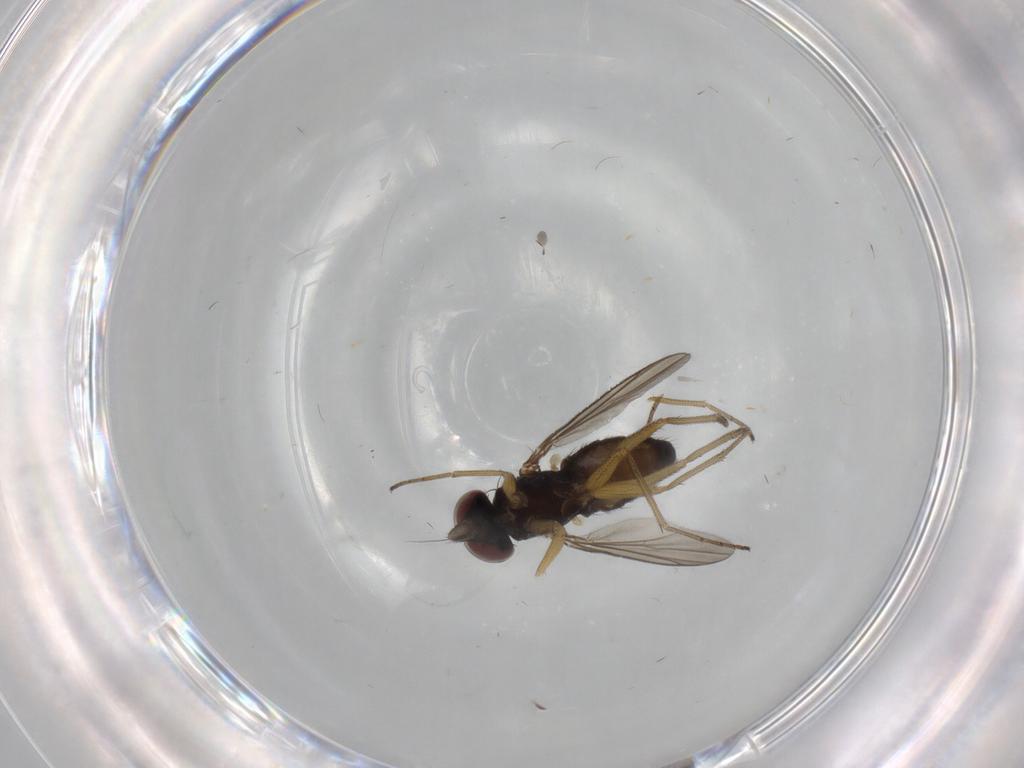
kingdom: Animalia
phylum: Arthropoda
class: Insecta
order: Diptera
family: Dolichopodidae
